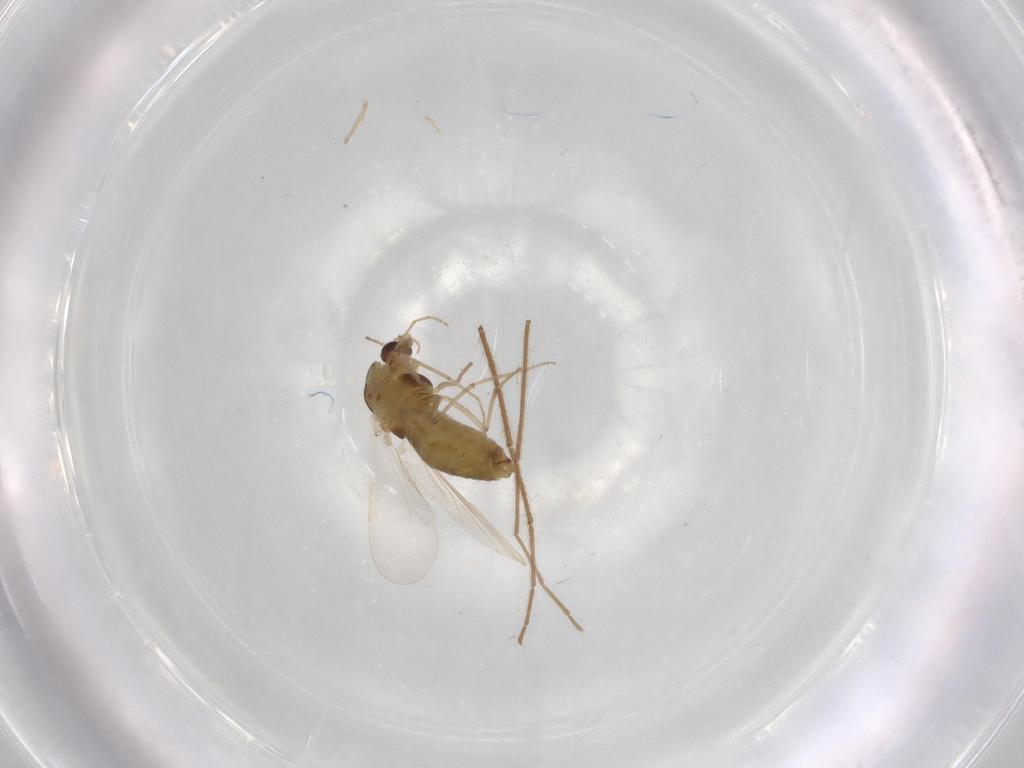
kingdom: Animalia
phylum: Arthropoda
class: Insecta
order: Diptera
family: Chironomidae
